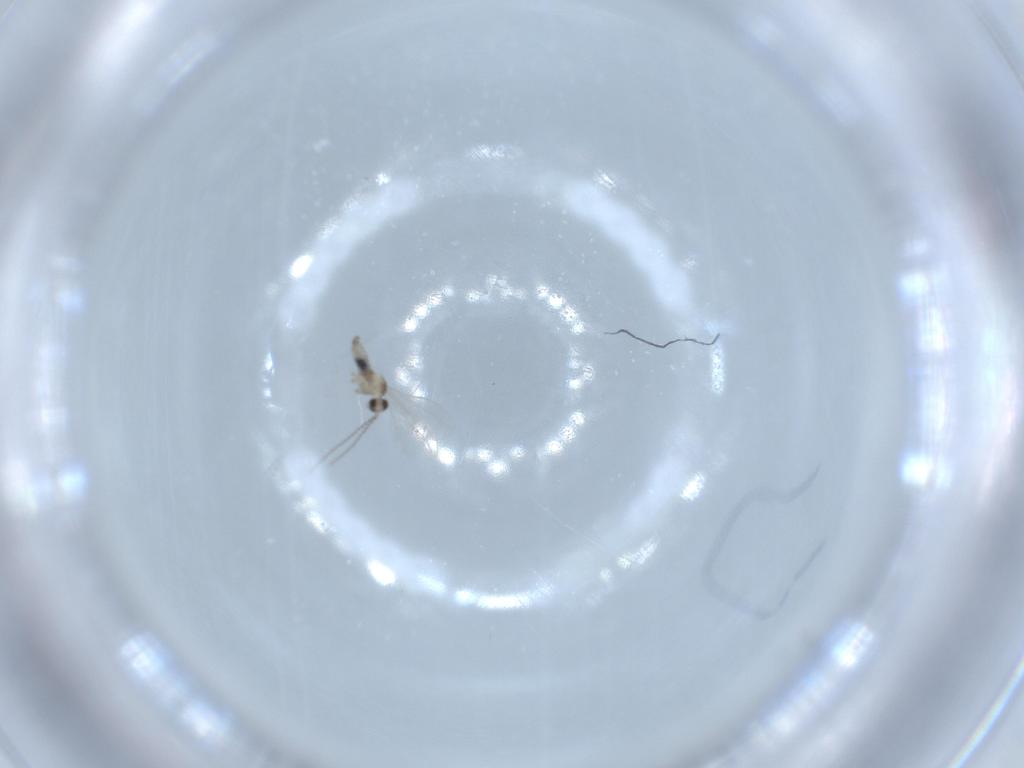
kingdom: Animalia
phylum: Arthropoda
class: Insecta
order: Diptera
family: Cecidomyiidae
